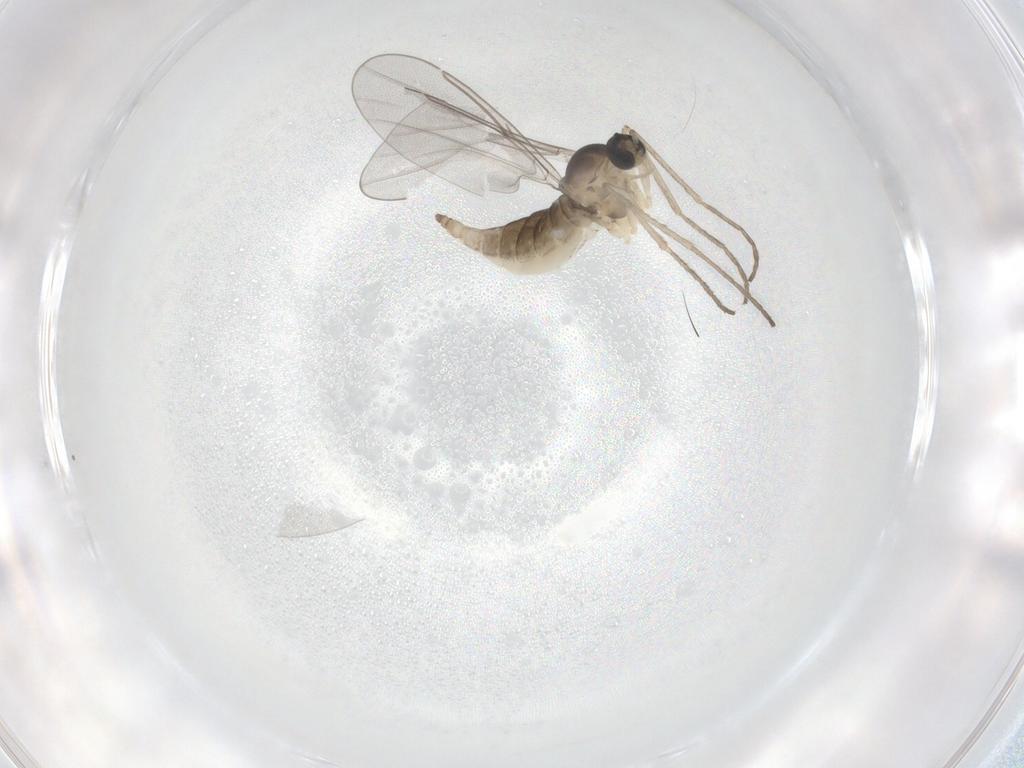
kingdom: Animalia
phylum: Arthropoda
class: Insecta
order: Diptera
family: Cecidomyiidae
